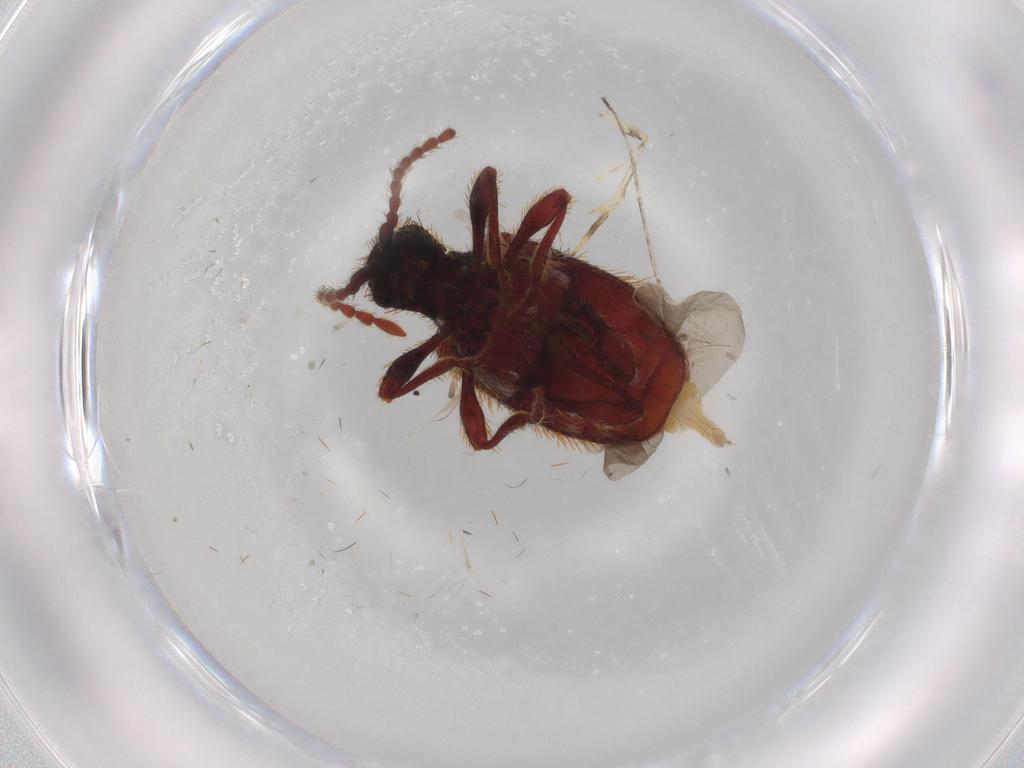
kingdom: Animalia
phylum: Arthropoda
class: Insecta
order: Coleoptera
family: Ptinidae
